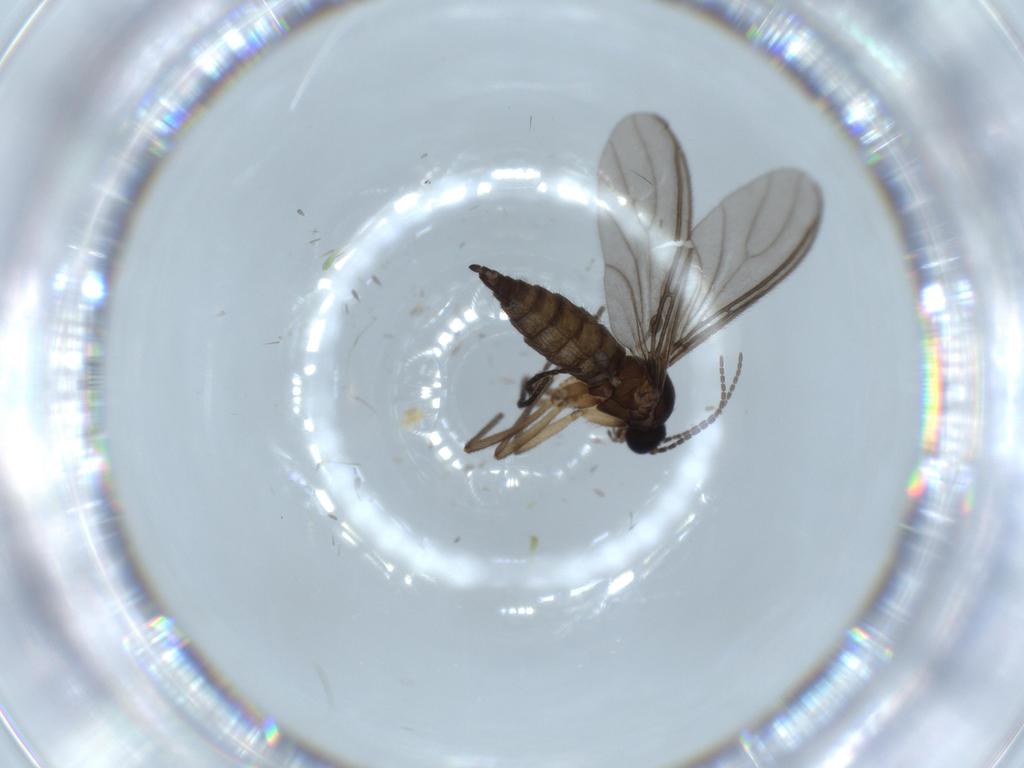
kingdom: Animalia
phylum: Arthropoda
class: Insecta
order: Diptera
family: Sciaridae
